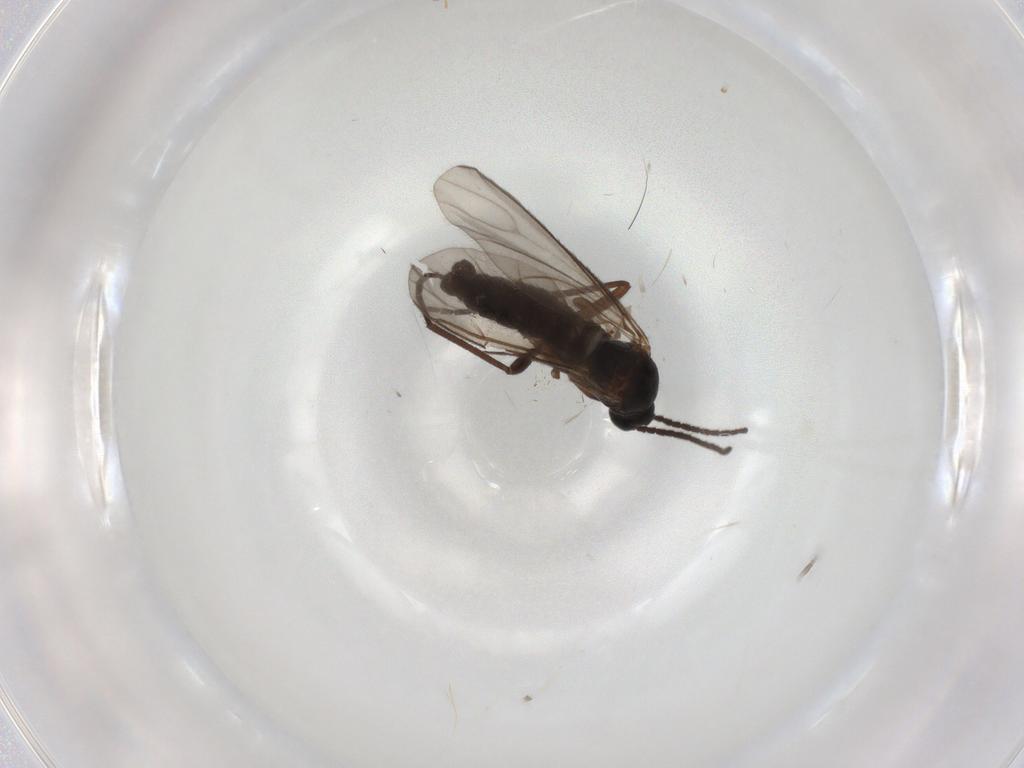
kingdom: Animalia
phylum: Arthropoda
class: Insecta
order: Diptera
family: Sciaridae
